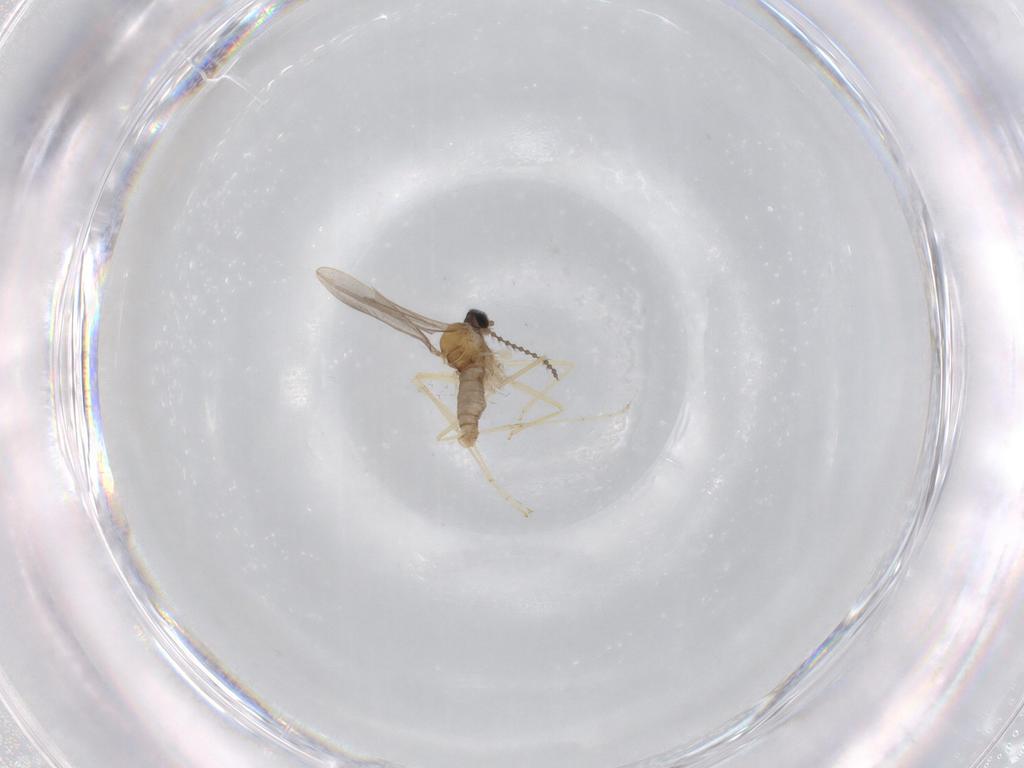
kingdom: Animalia
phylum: Arthropoda
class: Insecta
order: Diptera
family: Cecidomyiidae
